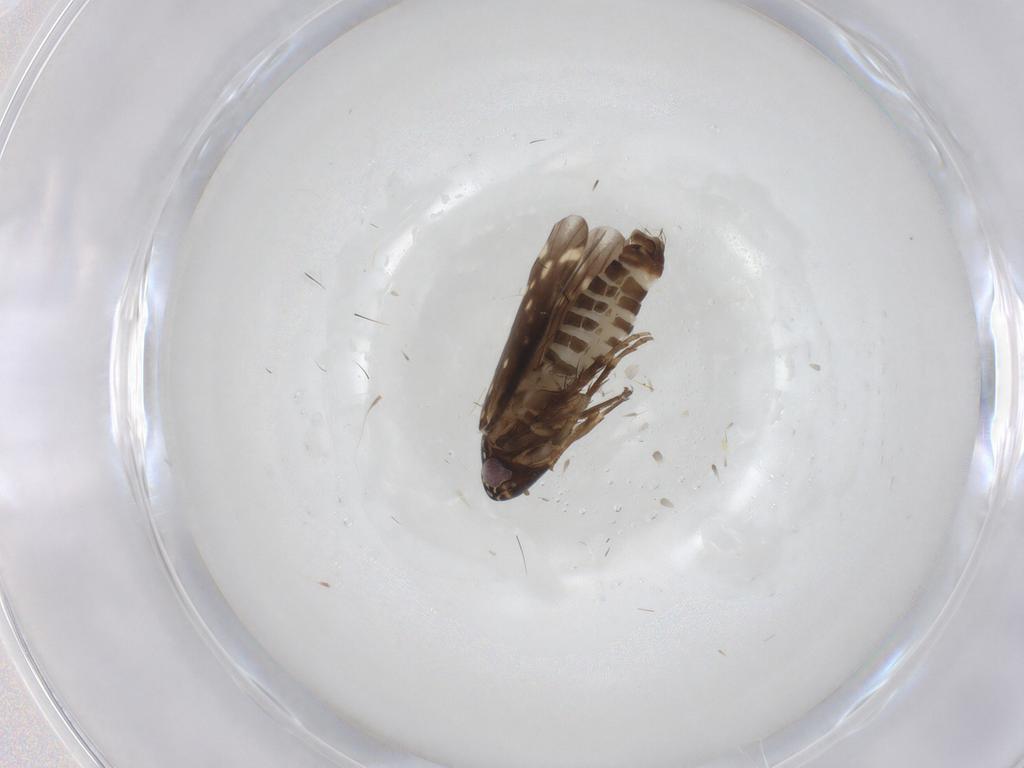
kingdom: Animalia
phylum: Arthropoda
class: Insecta
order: Hemiptera
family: Cicadellidae
